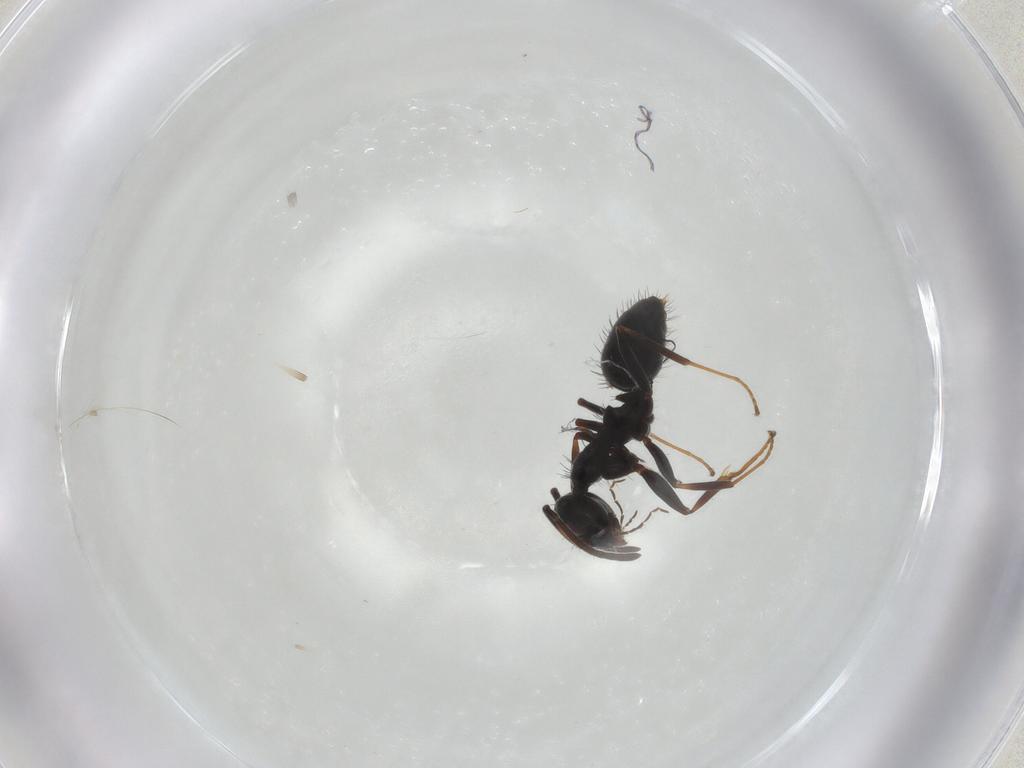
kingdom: Animalia
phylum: Arthropoda
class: Insecta
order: Hymenoptera
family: Formicidae
